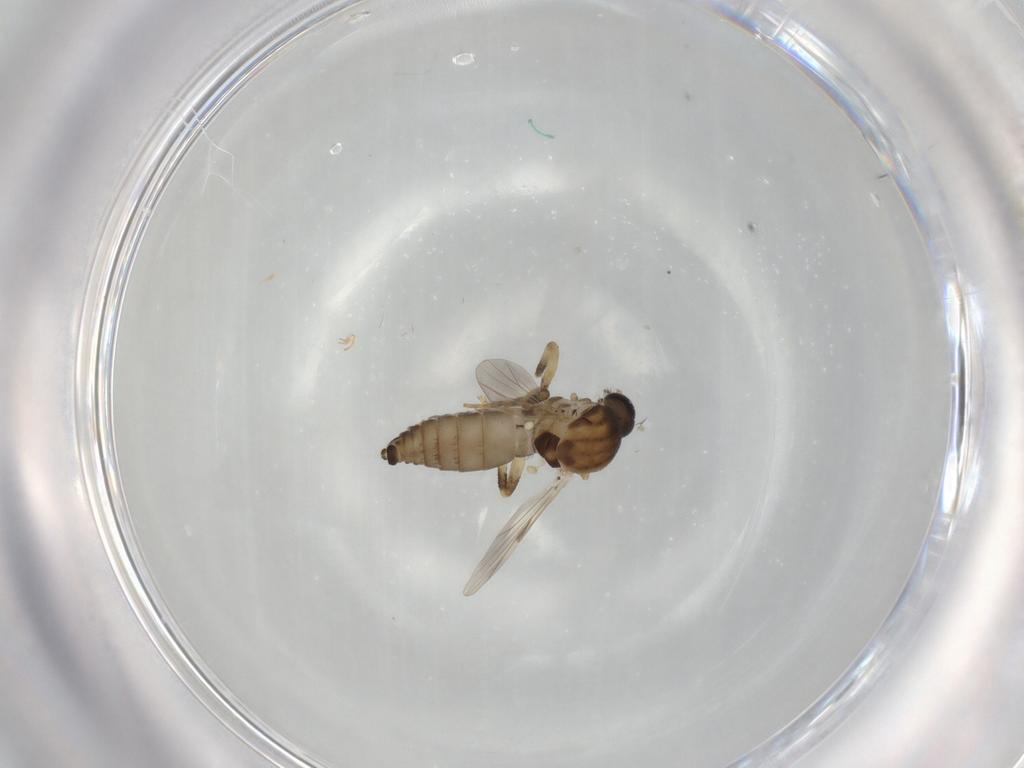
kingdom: Animalia
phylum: Arthropoda
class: Insecta
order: Diptera
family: Ceratopogonidae
